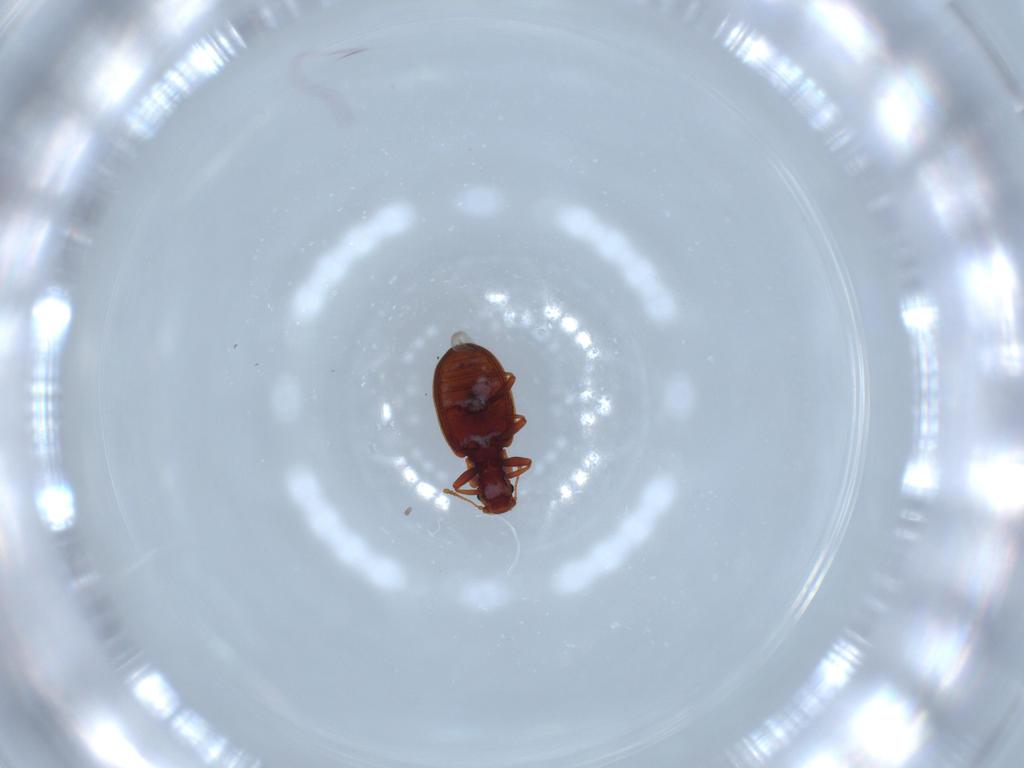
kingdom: Animalia
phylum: Arthropoda
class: Insecta
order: Coleoptera
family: Latridiidae
